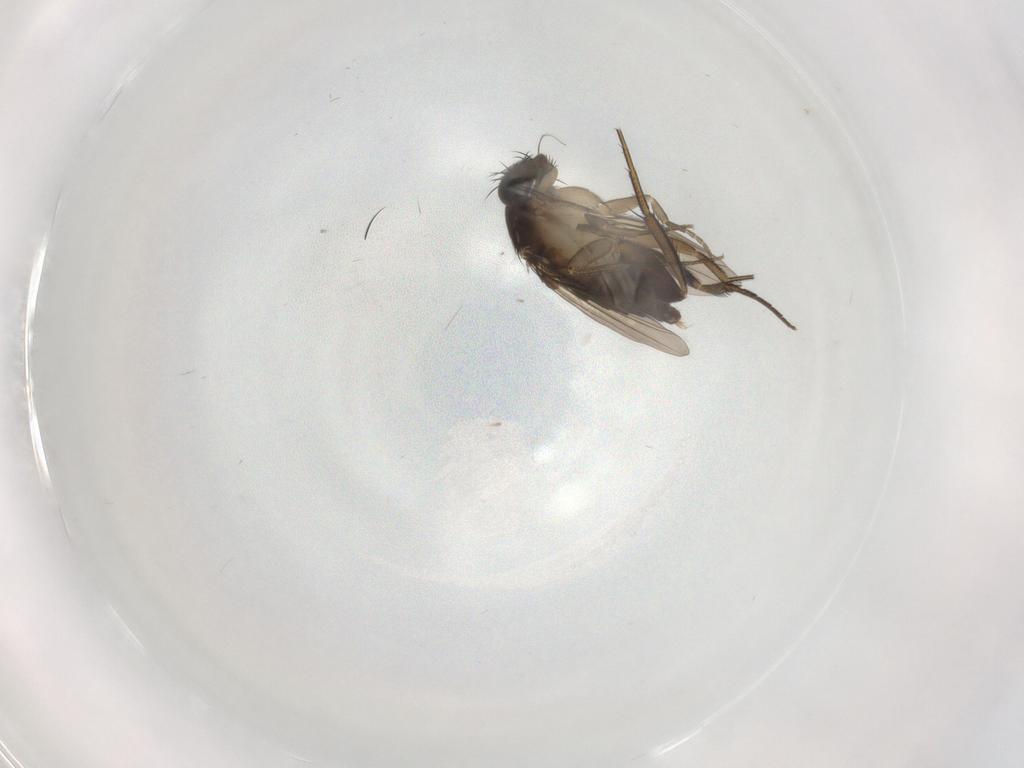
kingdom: Animalia
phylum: Arthropoda
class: Insecta
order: Diptera
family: Phoridae
